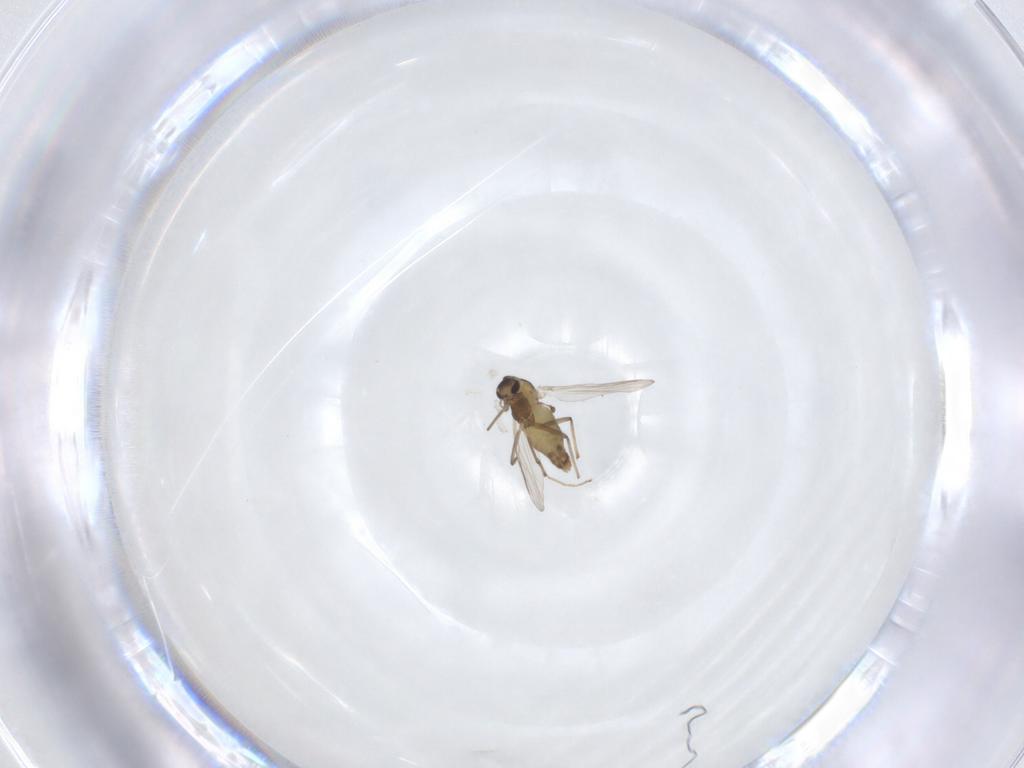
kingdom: Animalia
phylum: Arthropoda
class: Insecta
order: Diptera
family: Chironomidae
